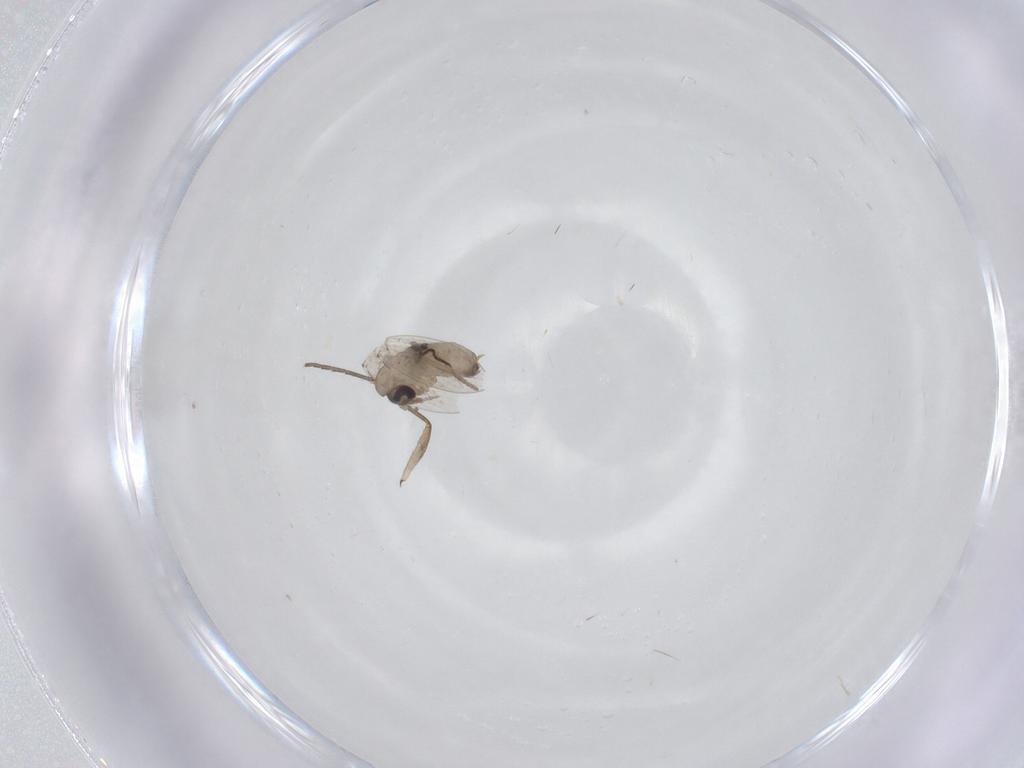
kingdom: Animalia
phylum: Arthropoda
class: Insecta
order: Diptera
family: Psychodidae
